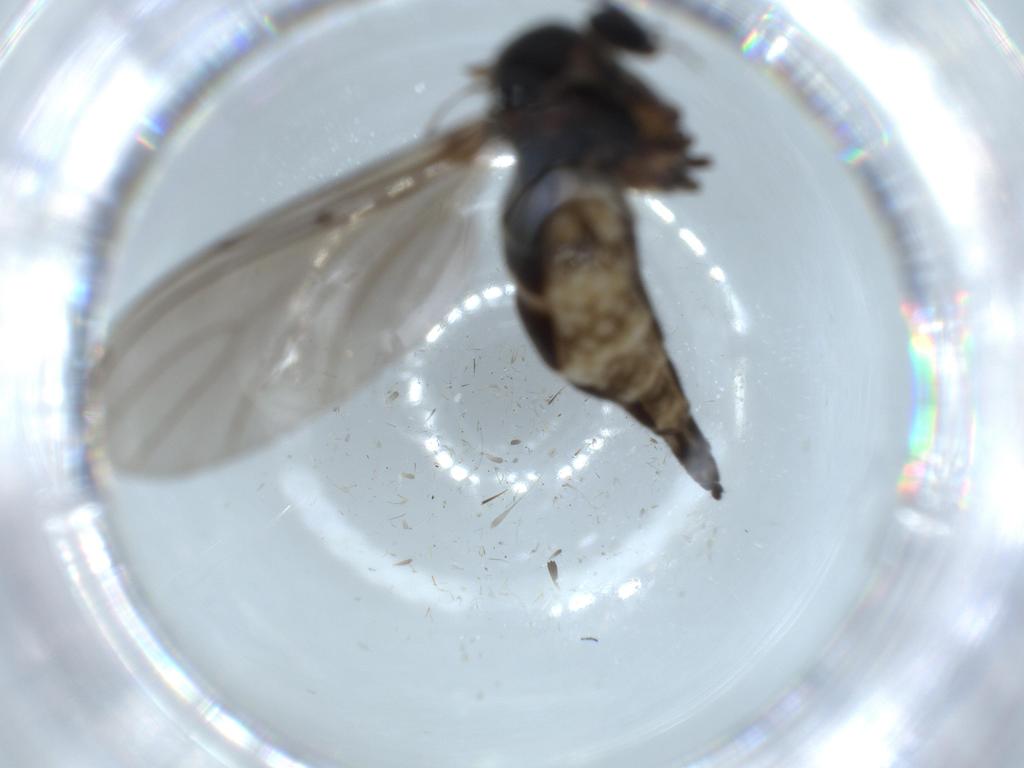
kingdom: Animalia
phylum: Arthropoda
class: Insecta
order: Diptera
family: Sciaridae
